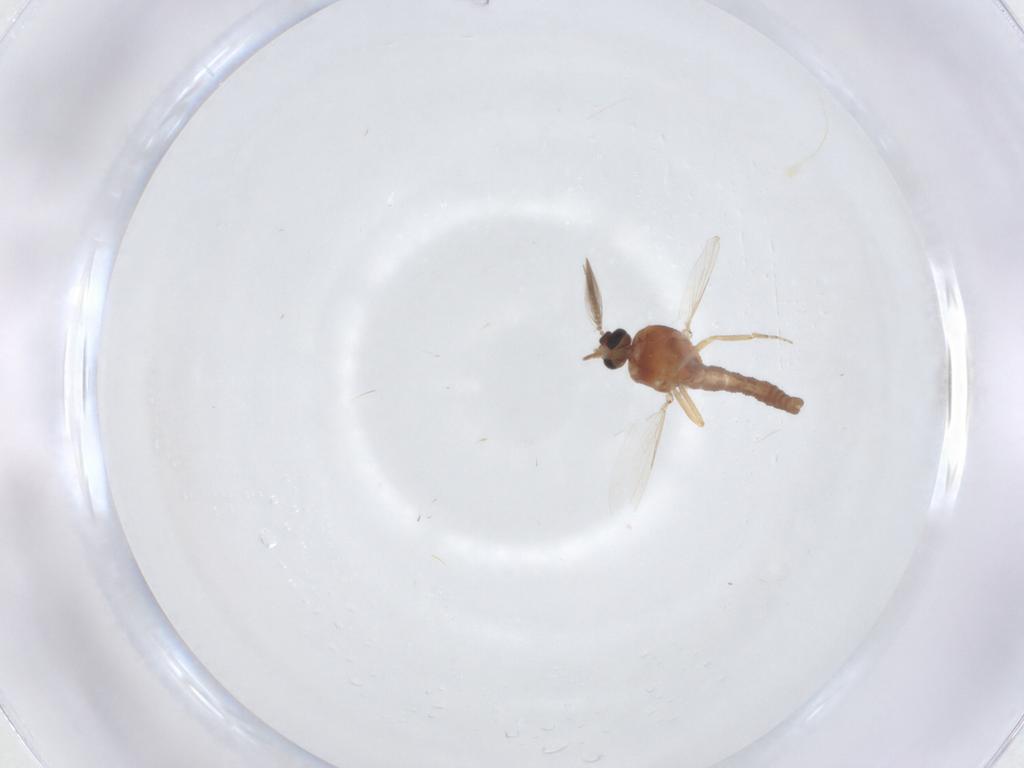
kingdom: Animalia
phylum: Arthropoda
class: Insecta
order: Diptera
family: Ceratopogonidae
